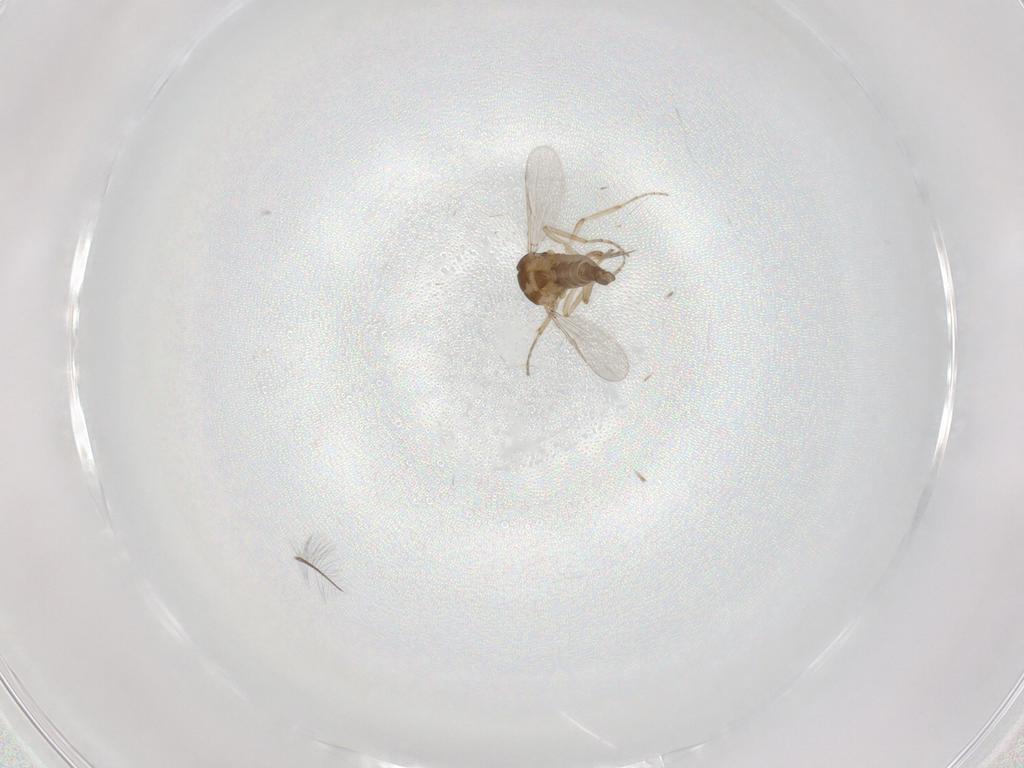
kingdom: Animalia
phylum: Arthropoda
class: Insecta
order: Diptera
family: Chironomidae
